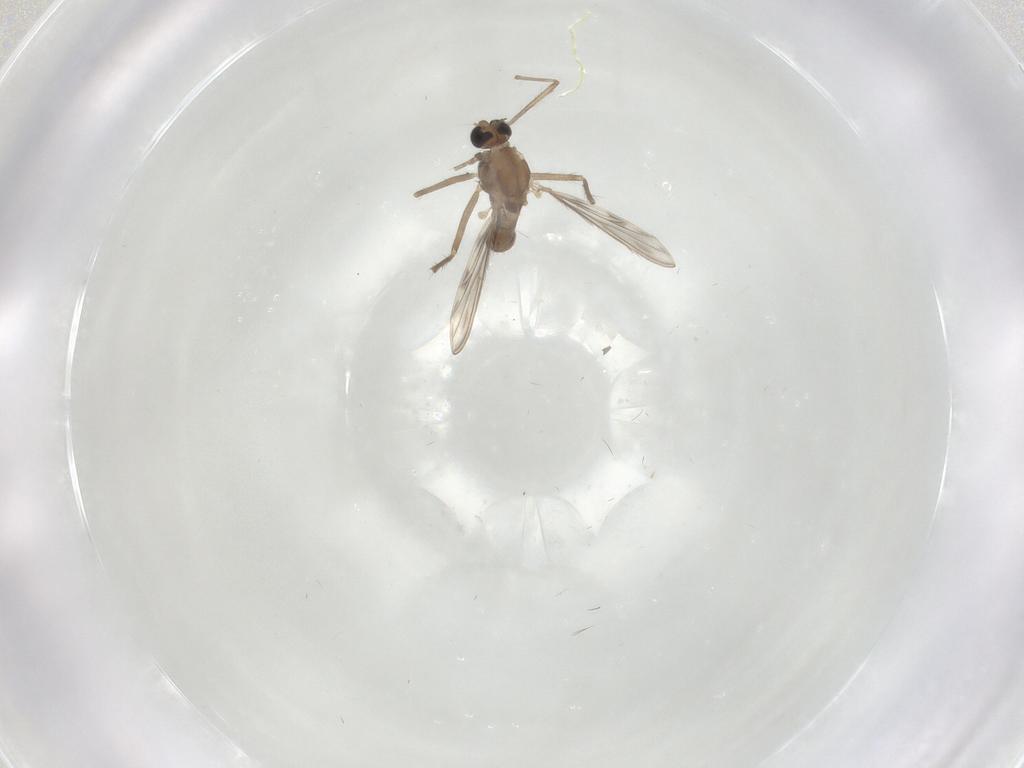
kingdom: Animalia
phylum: Arthropoda
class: Insecta
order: Diptera
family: Chironomidae
